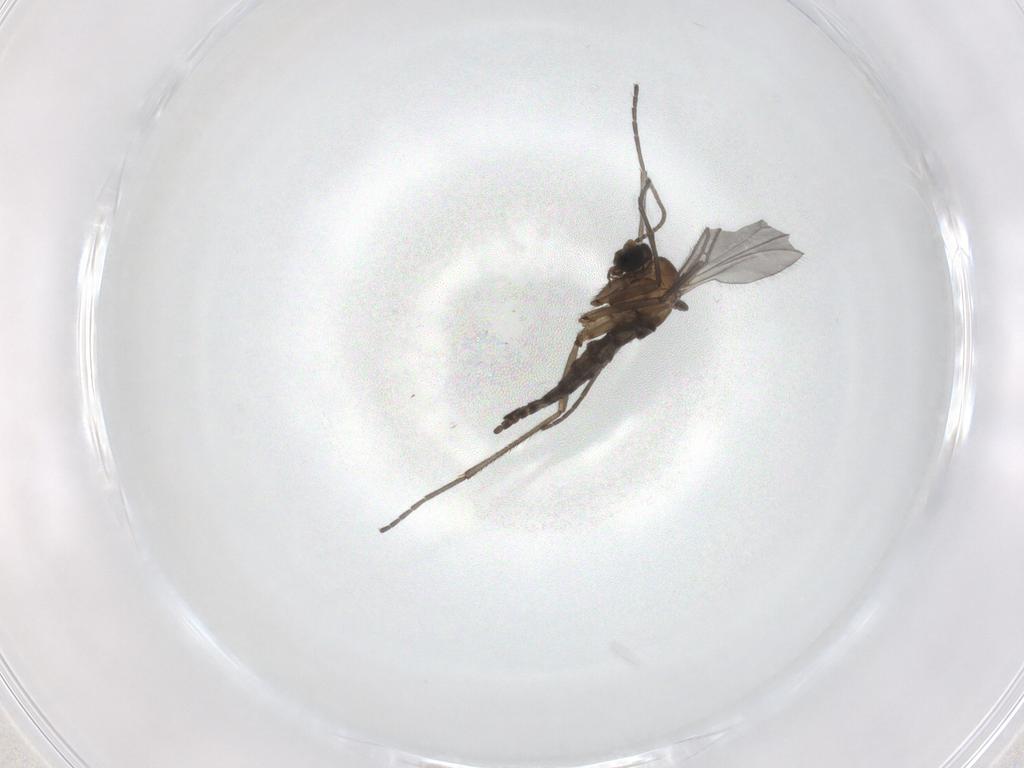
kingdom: Animalia
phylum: Arthropoda
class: Insecta
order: Diptera
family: Sciaridae
